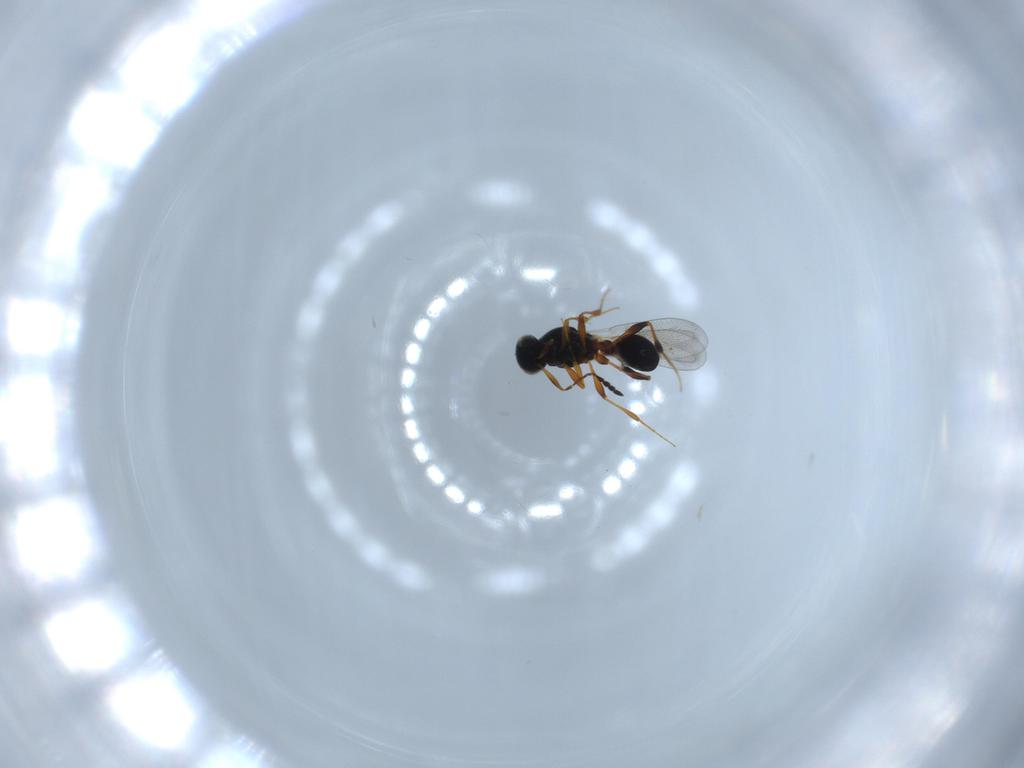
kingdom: Animalia
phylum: Arthropoda
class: Insecta
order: Hymenoptera
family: Platygastridae
